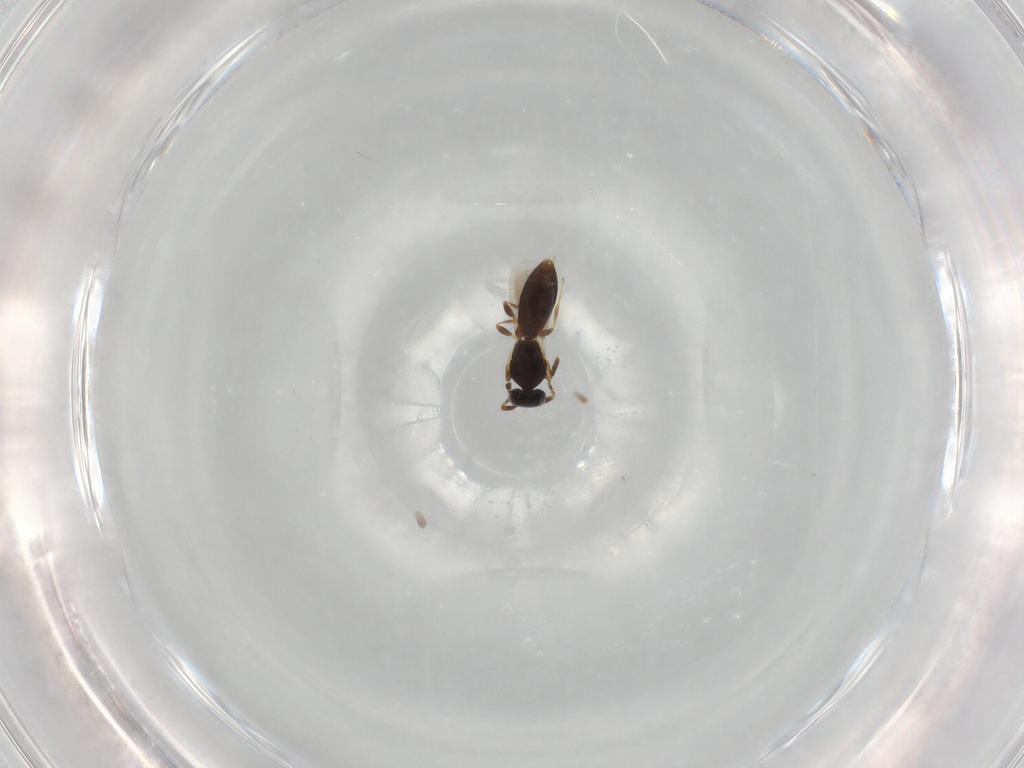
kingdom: Animalia
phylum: Arthropoda
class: Insecta
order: Hymenoptera
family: Platygastridae
